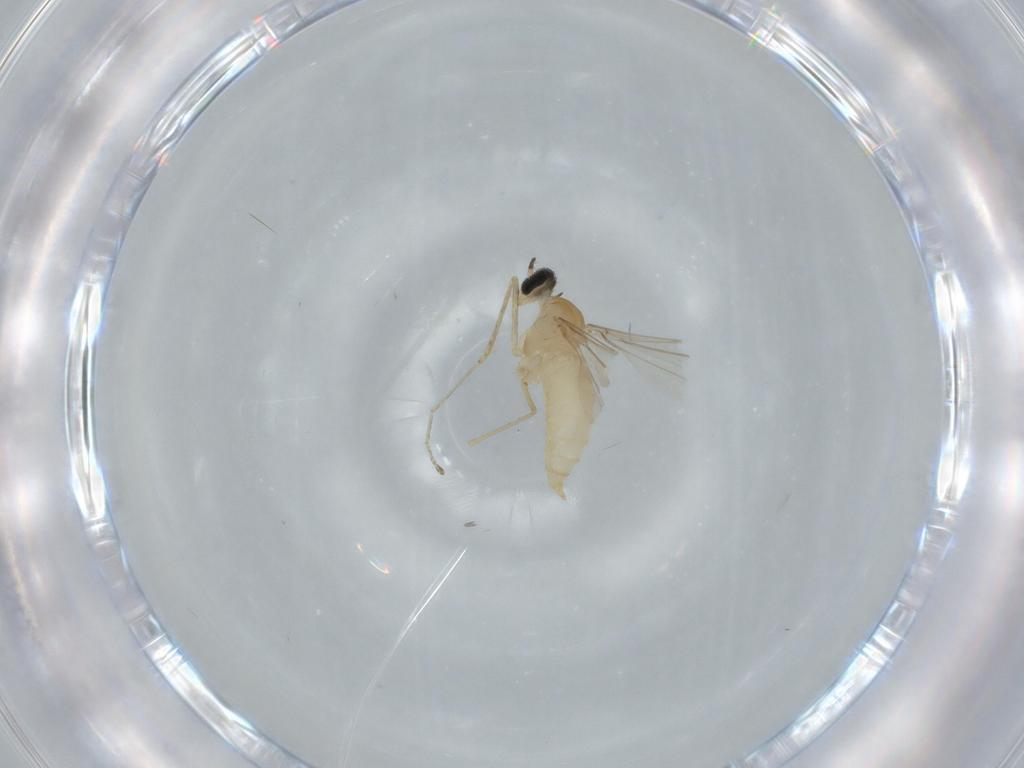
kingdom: Animalia
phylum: Arthropoda
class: Insecta
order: Diptera
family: Cecidomyiidae
